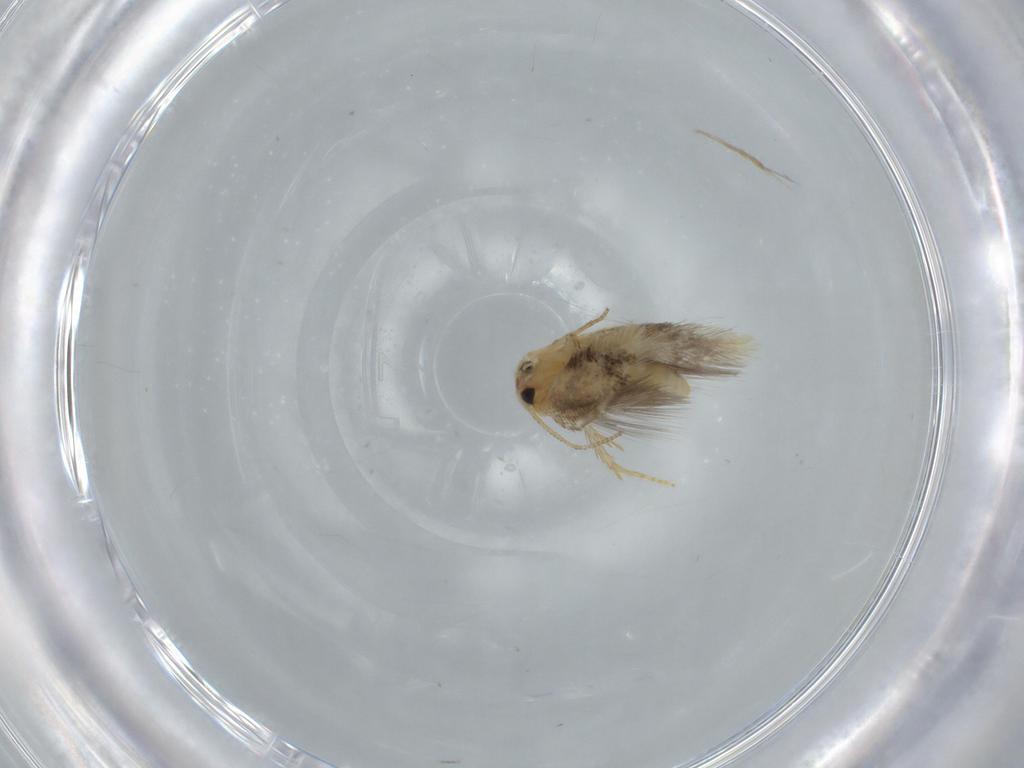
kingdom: Animalia
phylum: Arthropoda
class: Insecta
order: Lepidoptera
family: Nepticulidae
